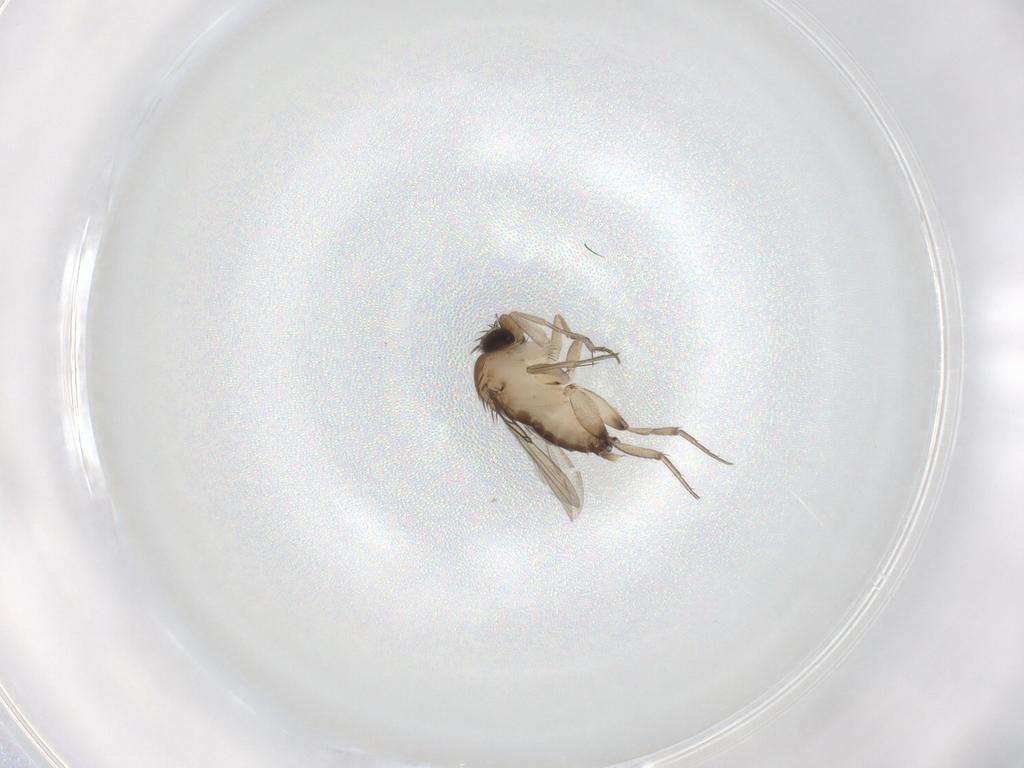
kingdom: Animalia
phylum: Arthropoda
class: Insecta
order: Diptera
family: Phoridae
